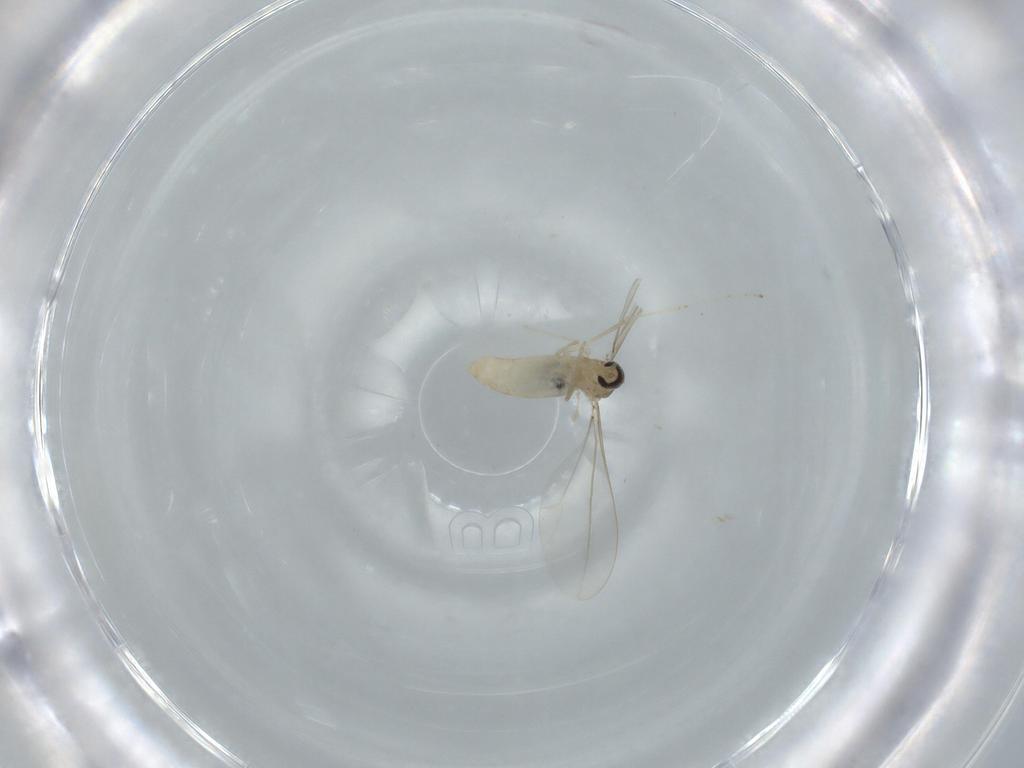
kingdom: Animalia
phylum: Arthropoda
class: Insecta
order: Diptera
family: Cecidomyiidae
